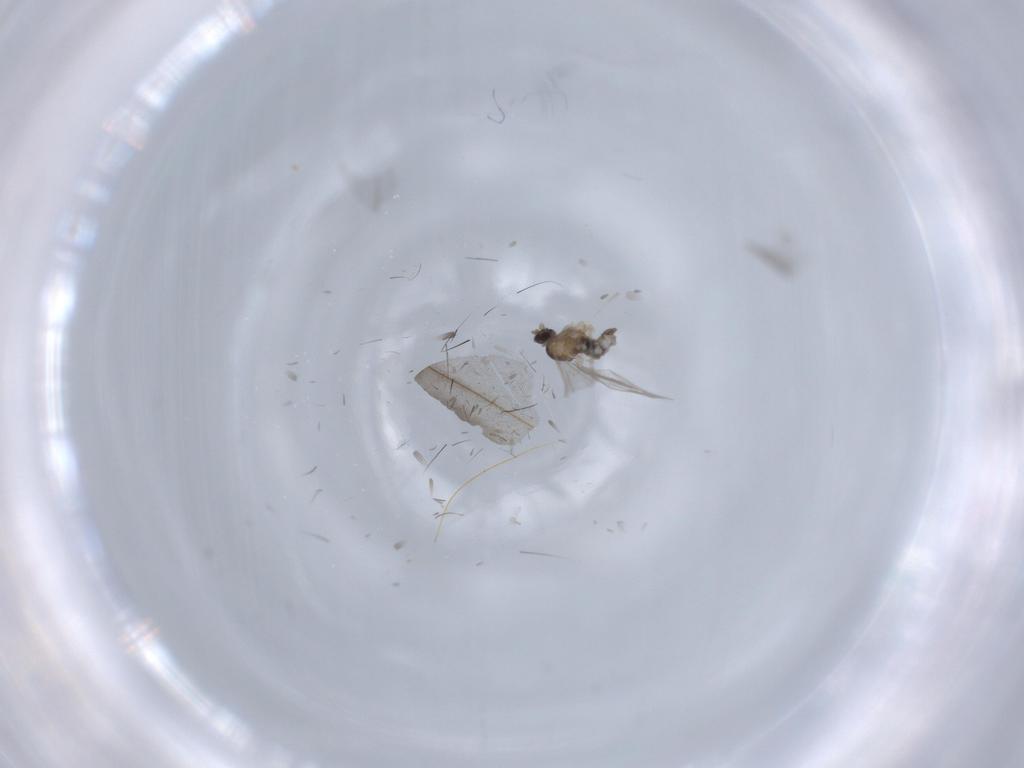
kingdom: Animalia
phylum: Arthropoda
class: Insecta
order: Diptera
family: Cecidomyiidae
